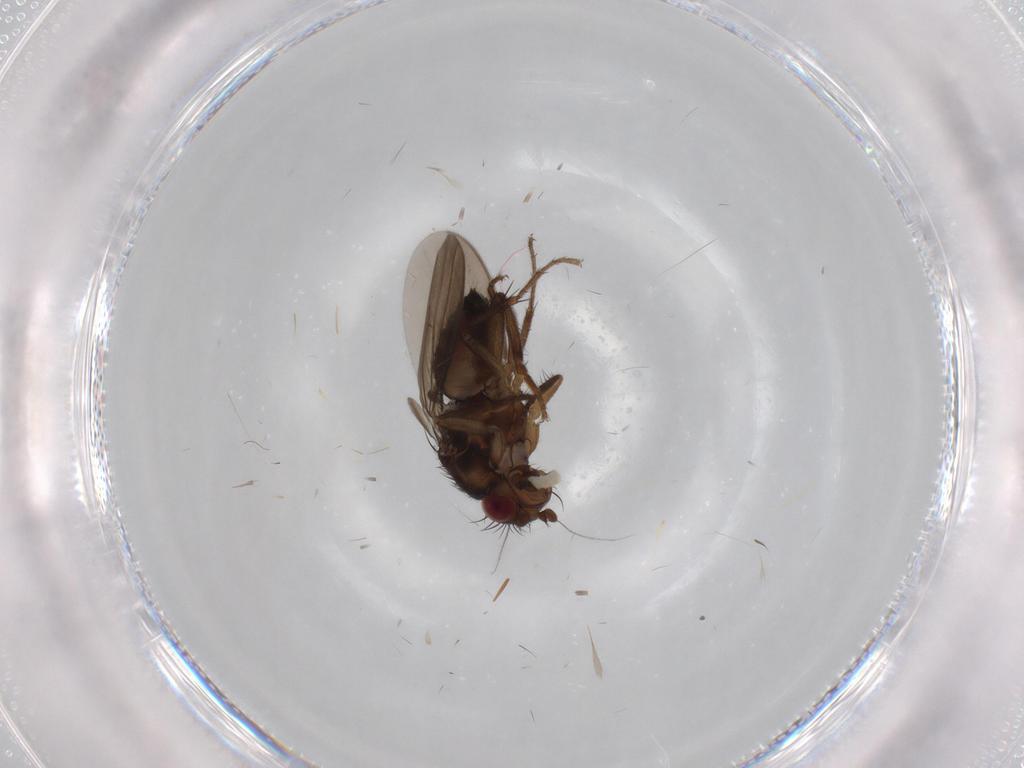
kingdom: Animalia
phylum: Arthropoda
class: Insecta
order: Diptera
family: Sphaeroceridae
